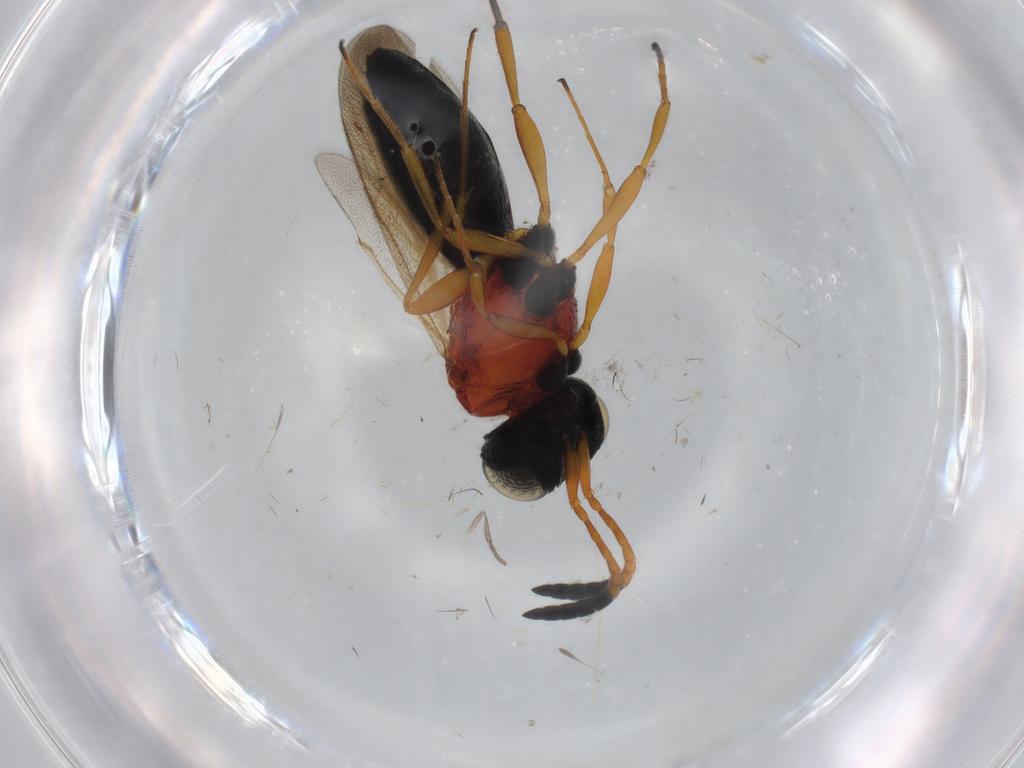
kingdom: Animalia
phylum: Arthropoda
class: Insecta
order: Hymenoptera
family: Scelionidae
